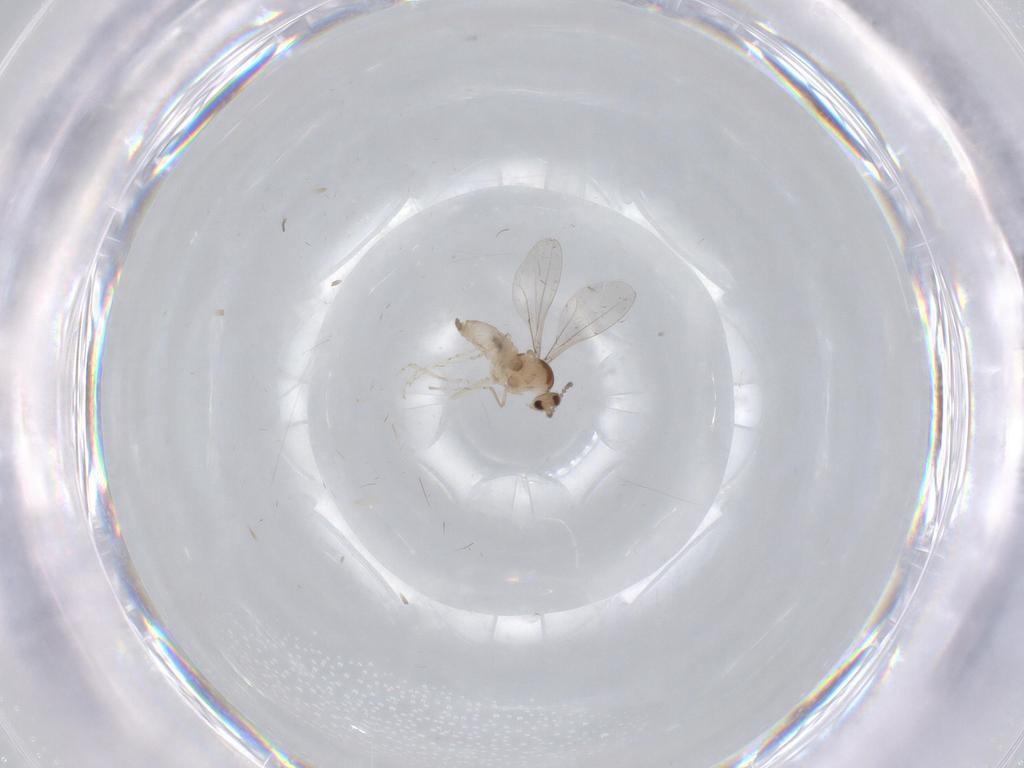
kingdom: Animalia
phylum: Arthropoda
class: Insecta
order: Diptera
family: Cecidomyiidae
